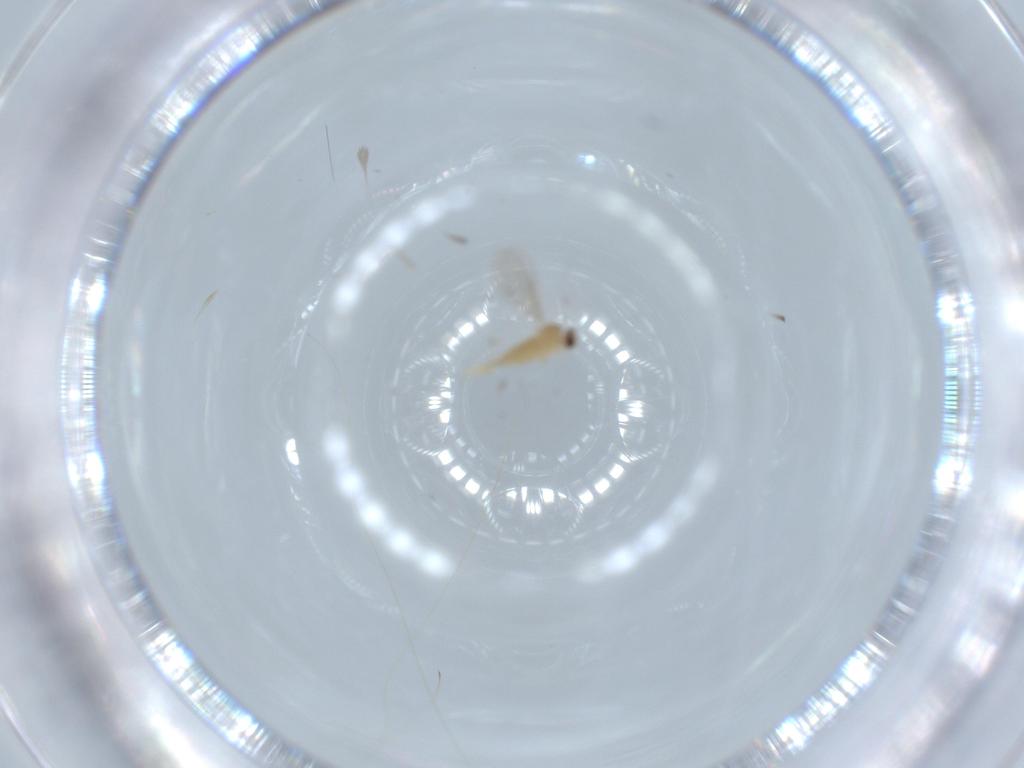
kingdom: Animalia
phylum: Arthropoda
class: Insecta
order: Diptera
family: Cecidomyiidae
